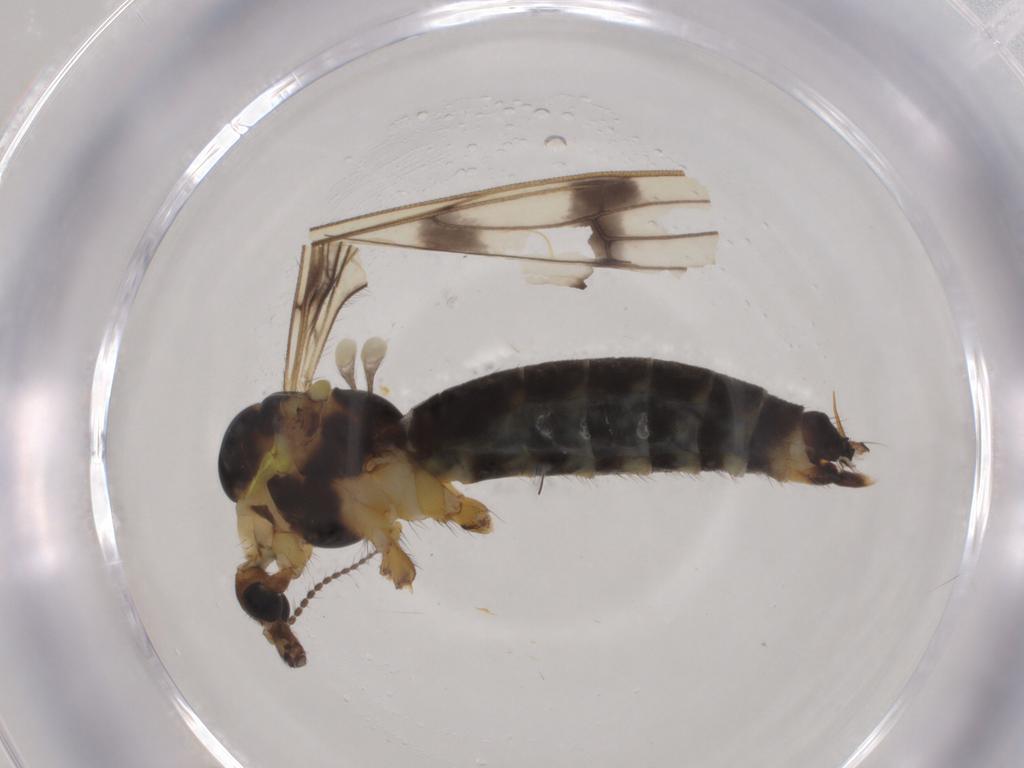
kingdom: Animalia
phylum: Arthropoda
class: Insecta
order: Diptera
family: Limoniidae
